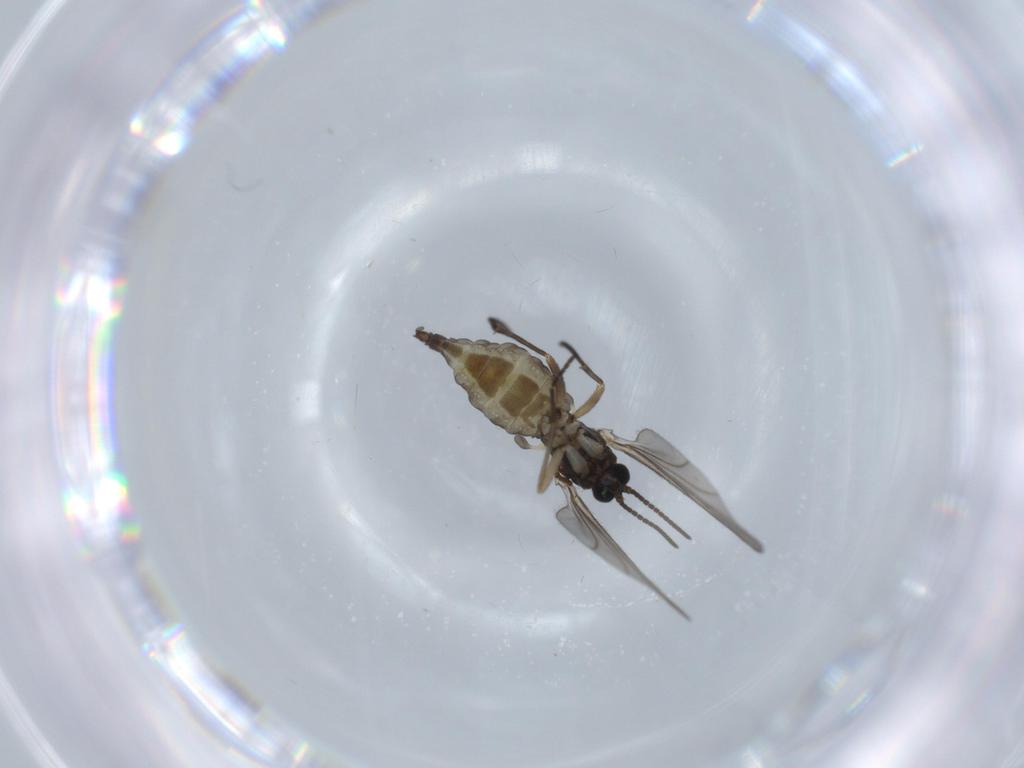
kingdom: Animalia
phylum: Arthropoda
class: Insecta
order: Diptera
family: Sciaridae
